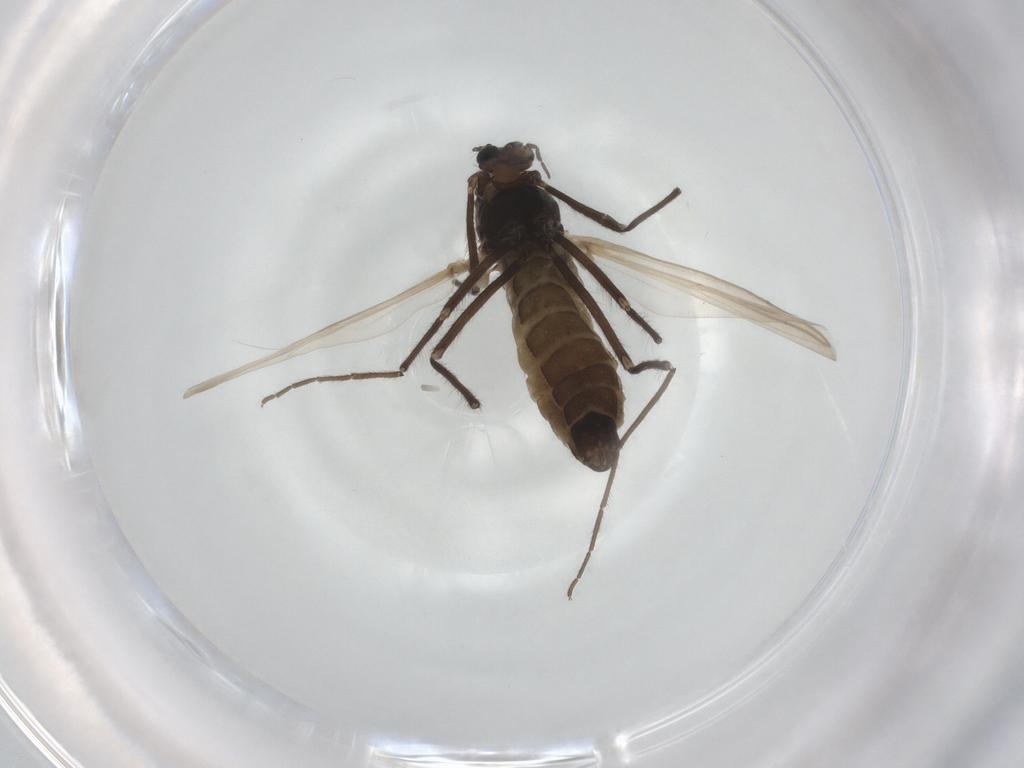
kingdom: Animalia
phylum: Arthropoda
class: Insecta
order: Diptera
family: Chironomidae
